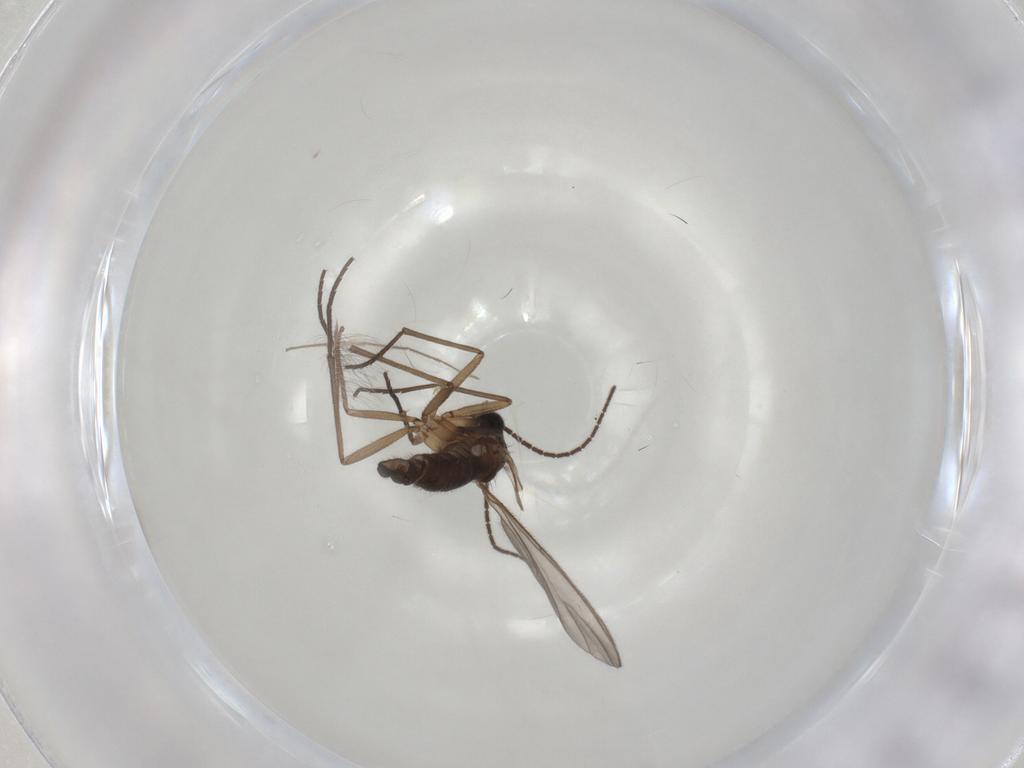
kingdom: Animalia
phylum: Arthropoda
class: Insecta
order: Diptera
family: Sciaridae
